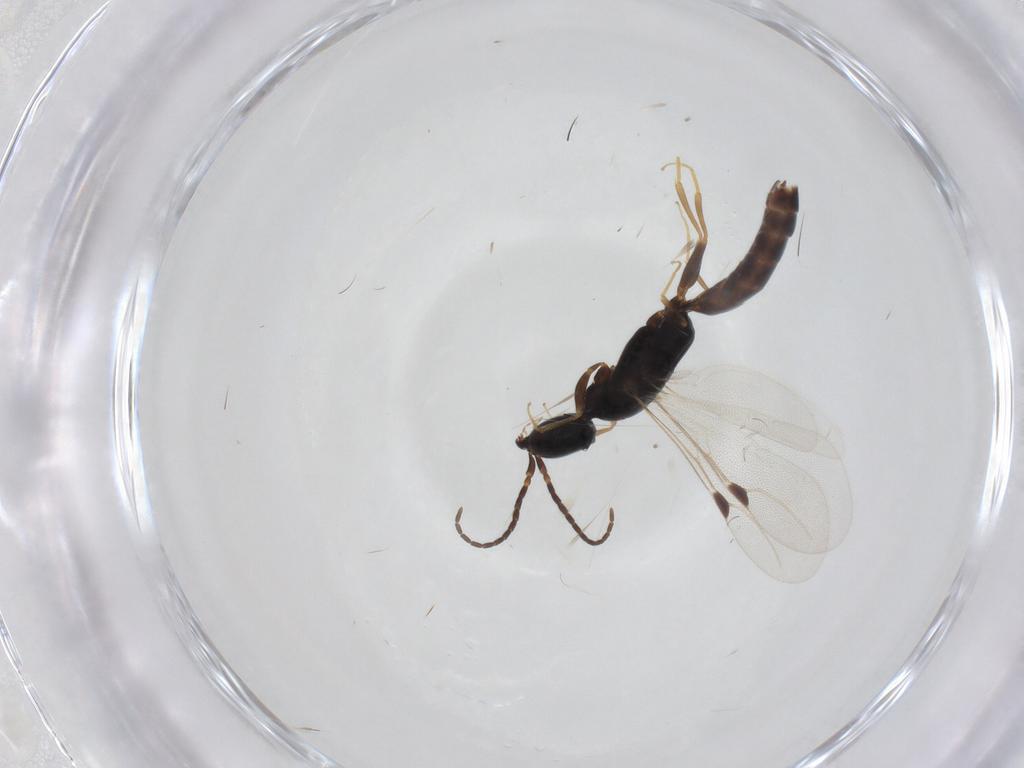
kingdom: Animalia
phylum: Arthropoda
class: Insecta
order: Hymenoptera
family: Bethylidae
